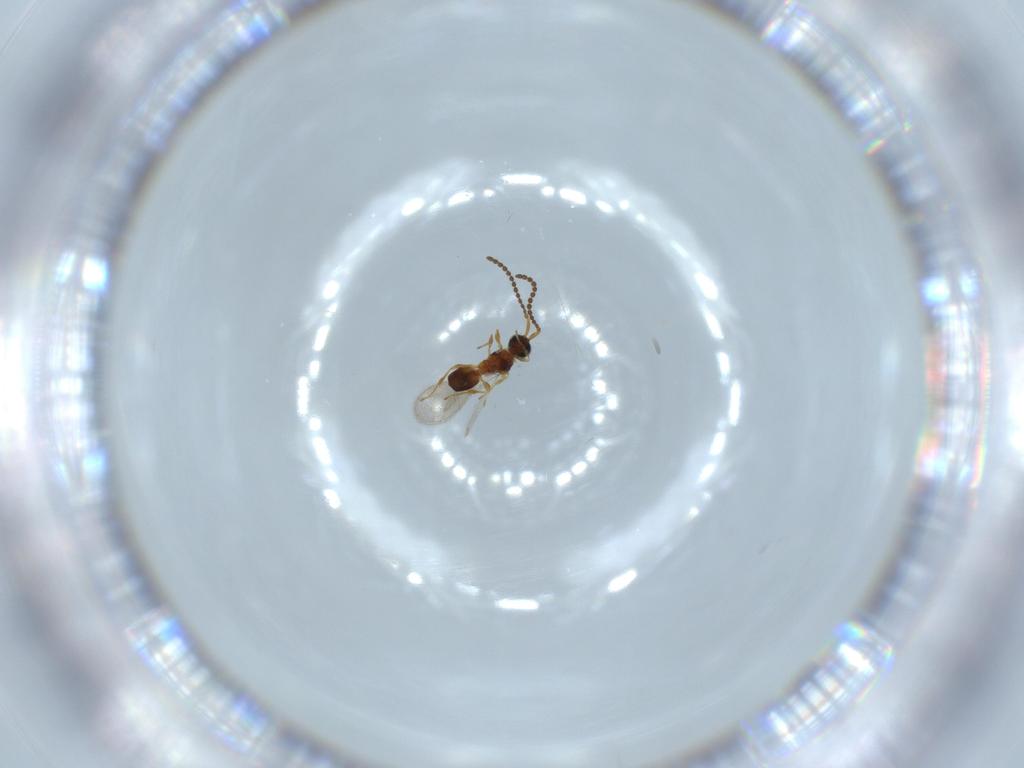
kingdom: Animalia
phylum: Arthropoda
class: Insecta
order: Hymenoptera
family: Diapriidae
